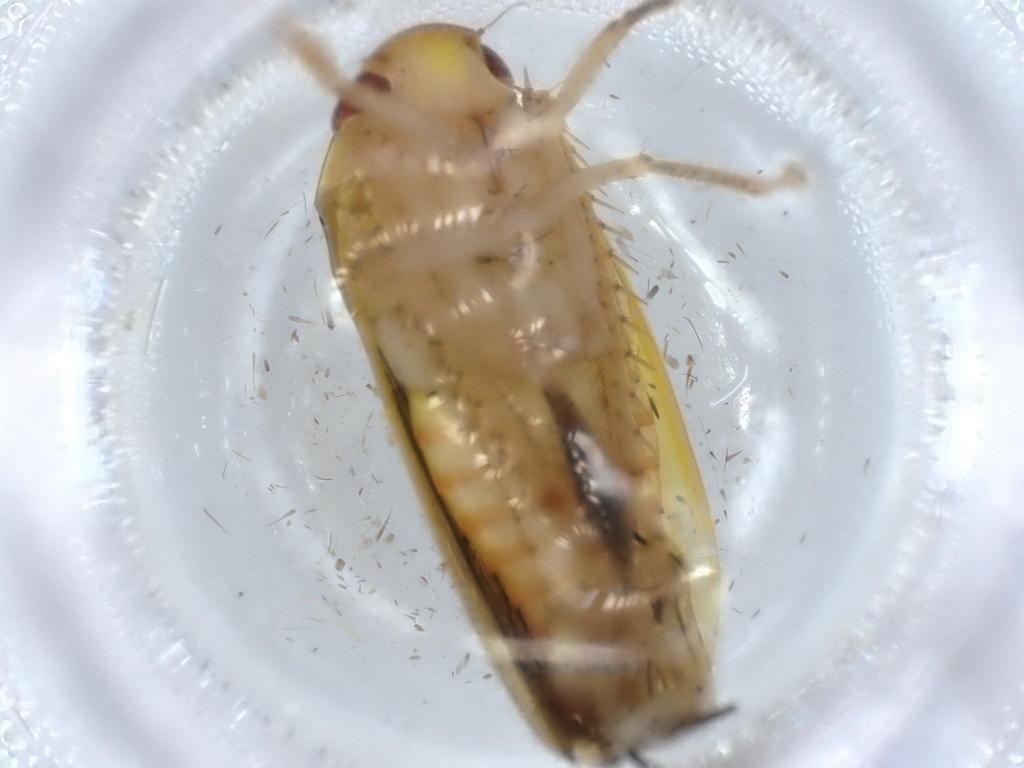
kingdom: Animalia
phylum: Arthropoda
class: Insecta
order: Hemiptera
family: Cicadellidae
